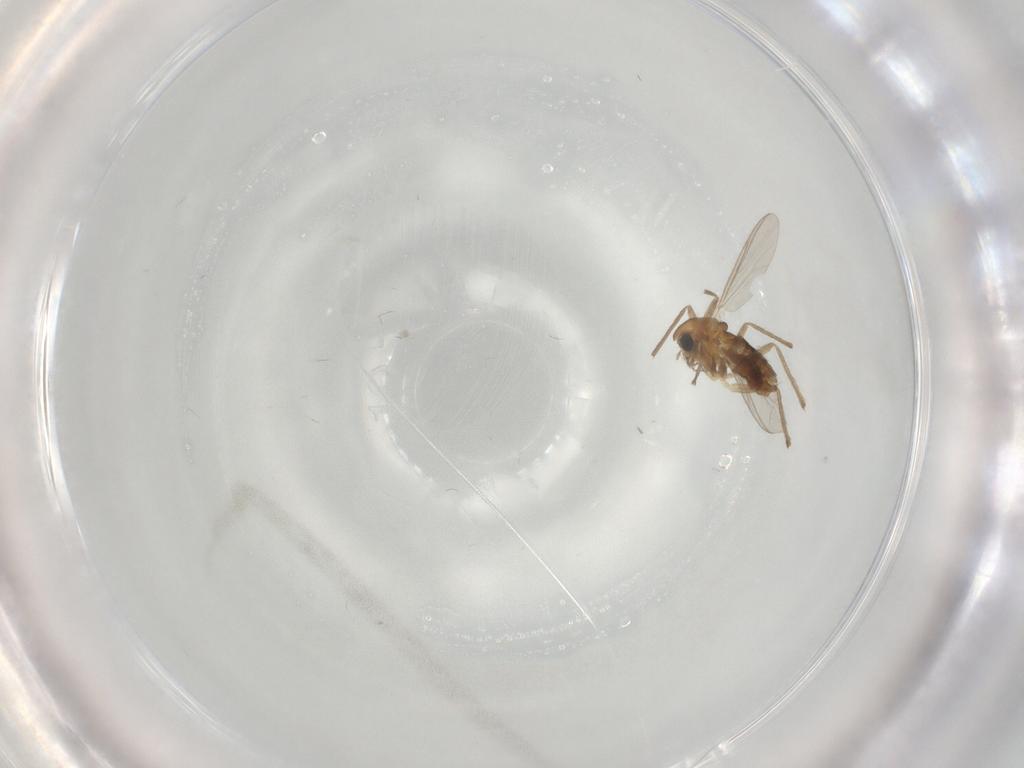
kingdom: Animalia
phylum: Arthropoda
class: Insecta
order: Diptera
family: Chironomidae
